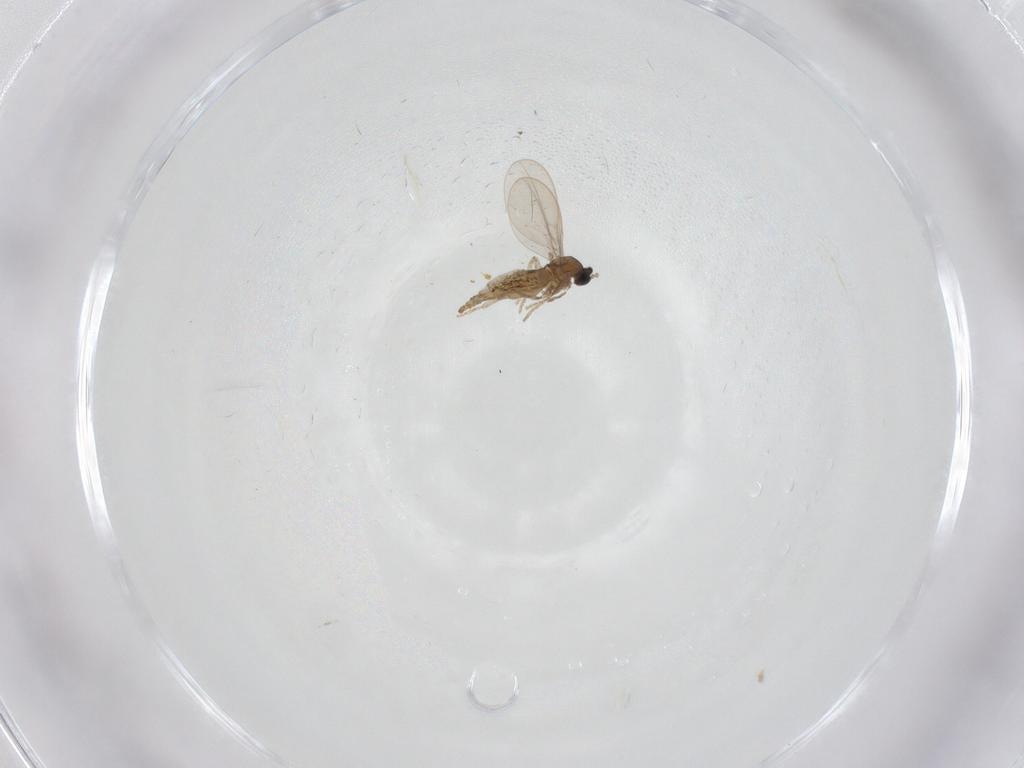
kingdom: Animalia
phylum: Arthropoda
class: Insecta
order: Diptera
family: Cecidomyiidae
